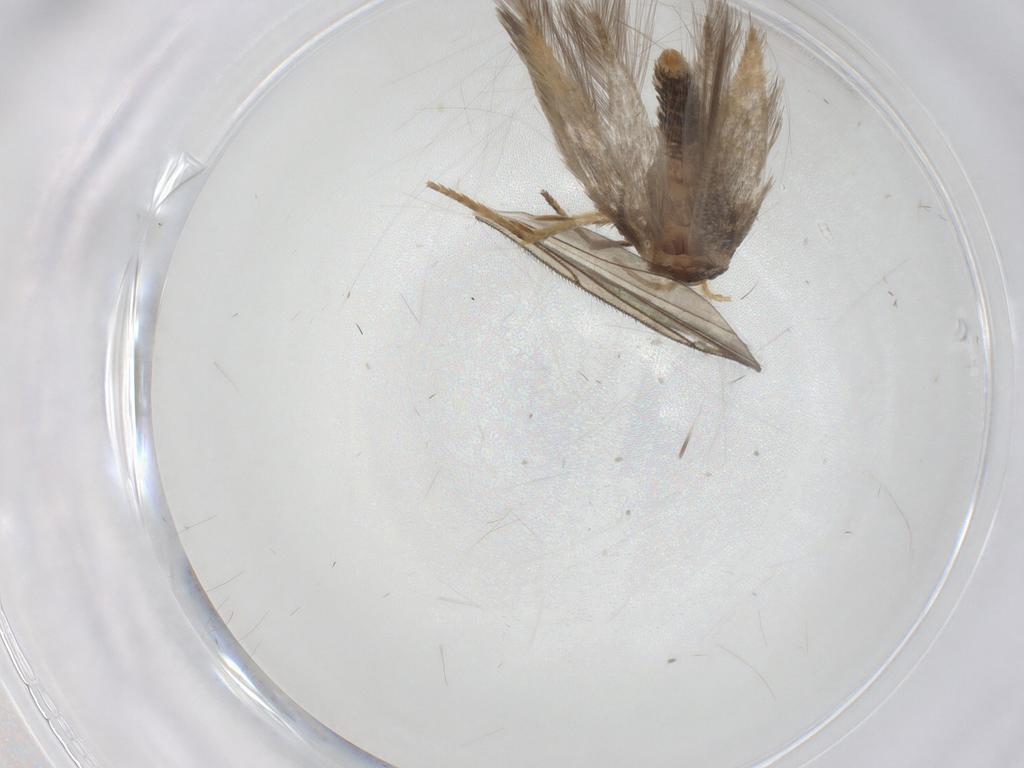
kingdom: Animalia
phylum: Arthropoda
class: Insecta
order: Lepidoptera
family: Nepticulidae
